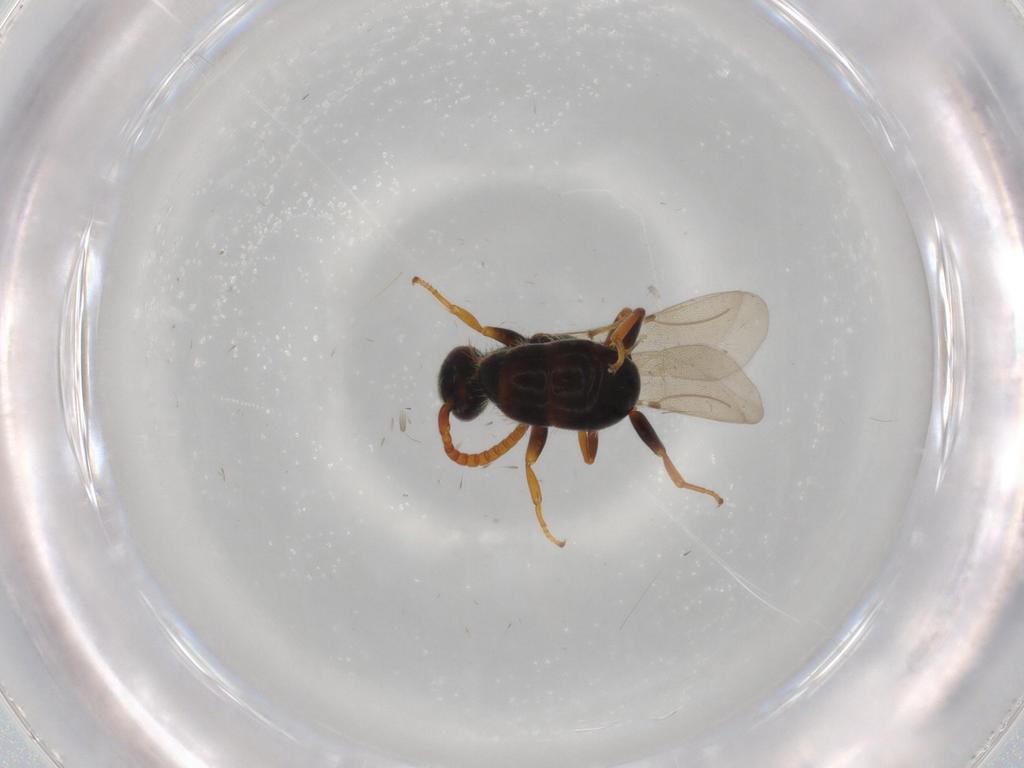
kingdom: Animalia
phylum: Arthropoda
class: Insecta
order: Hymenoptera
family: Bethylidae
